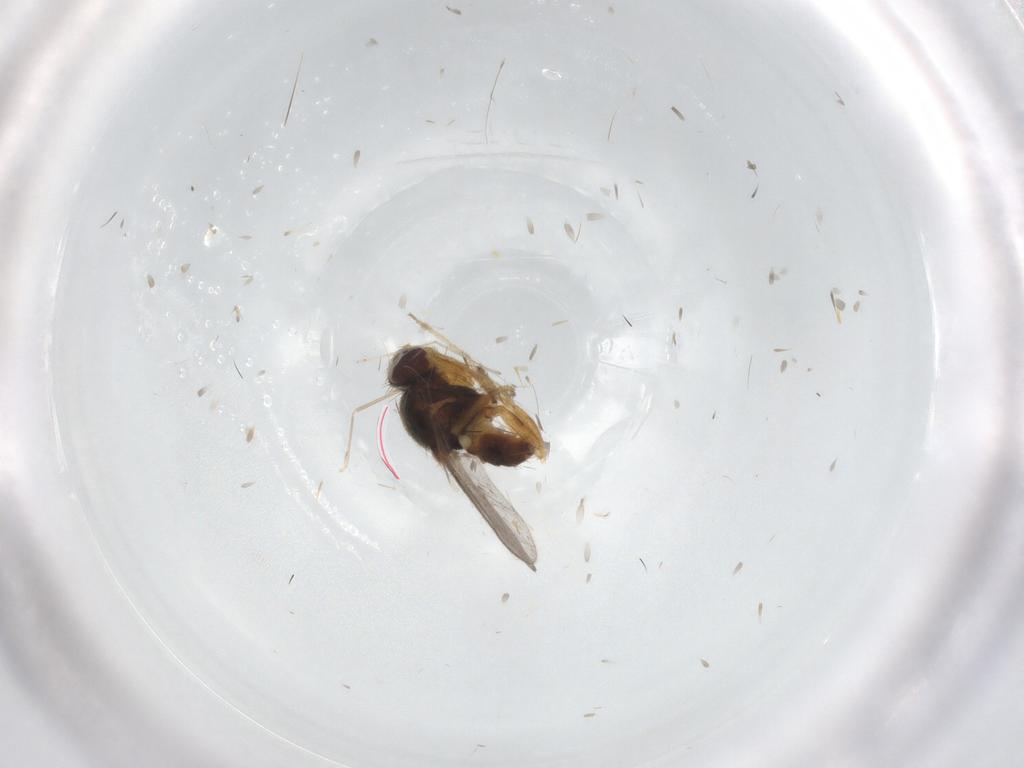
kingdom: Animalia
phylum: Arthropoda
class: Insecta
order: Diptera
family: Chloropidae
